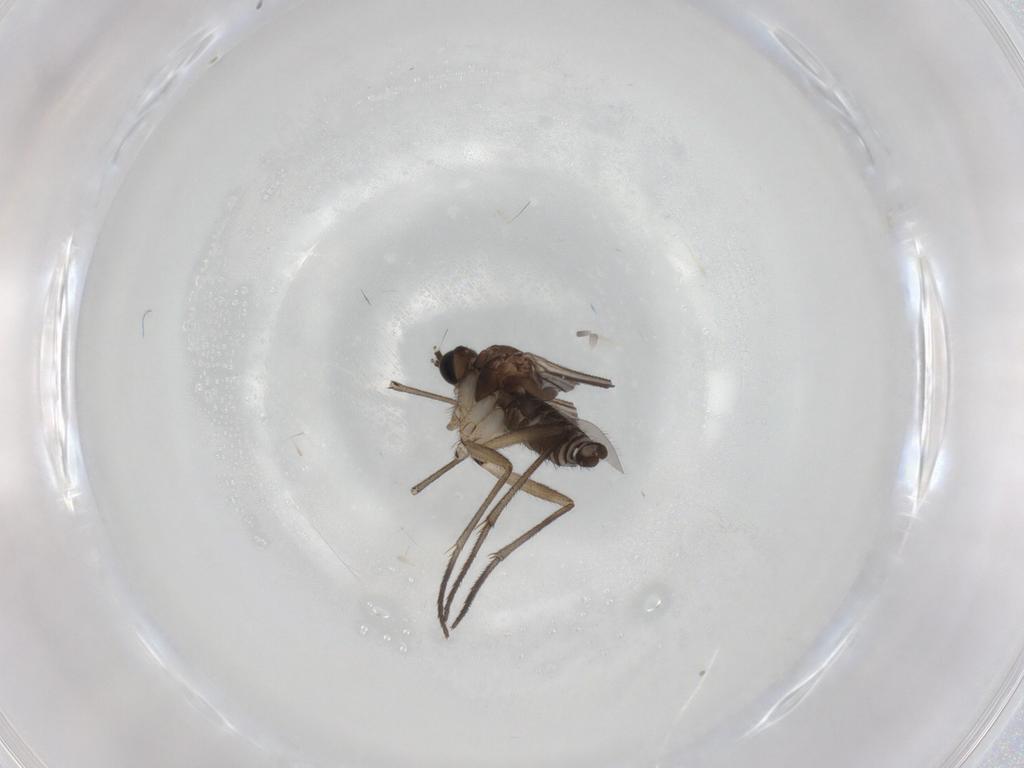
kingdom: Animalia
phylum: Arthropoda
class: Insecta
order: Diptera
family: Sciaridae
